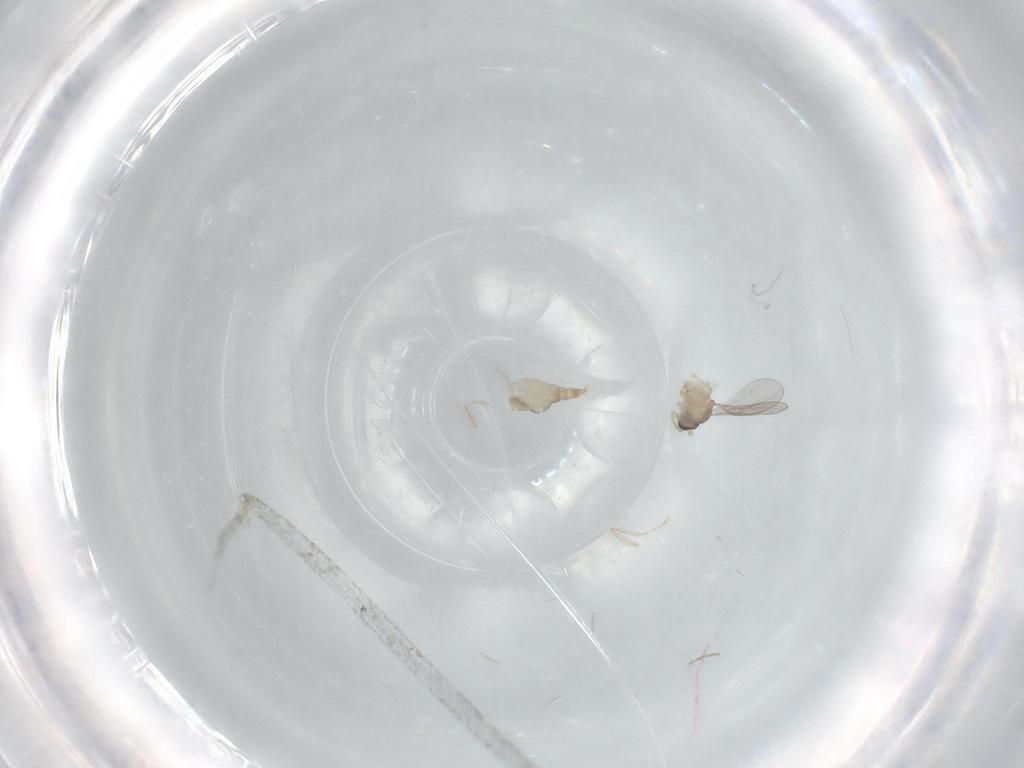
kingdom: Animalia
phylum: Arthropoda
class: Insecta
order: Diptera
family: Cecidomyiidae
